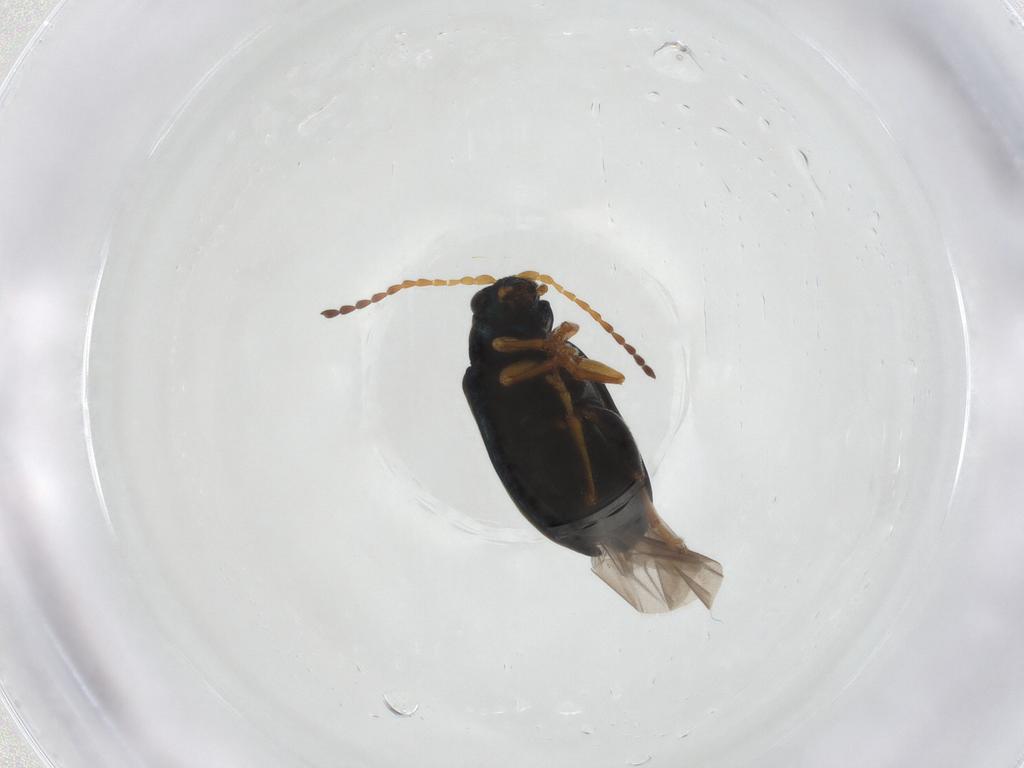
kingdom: Animalia
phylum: Arthropoda
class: Insecta
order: Coleoptera
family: Chrysomelidae
